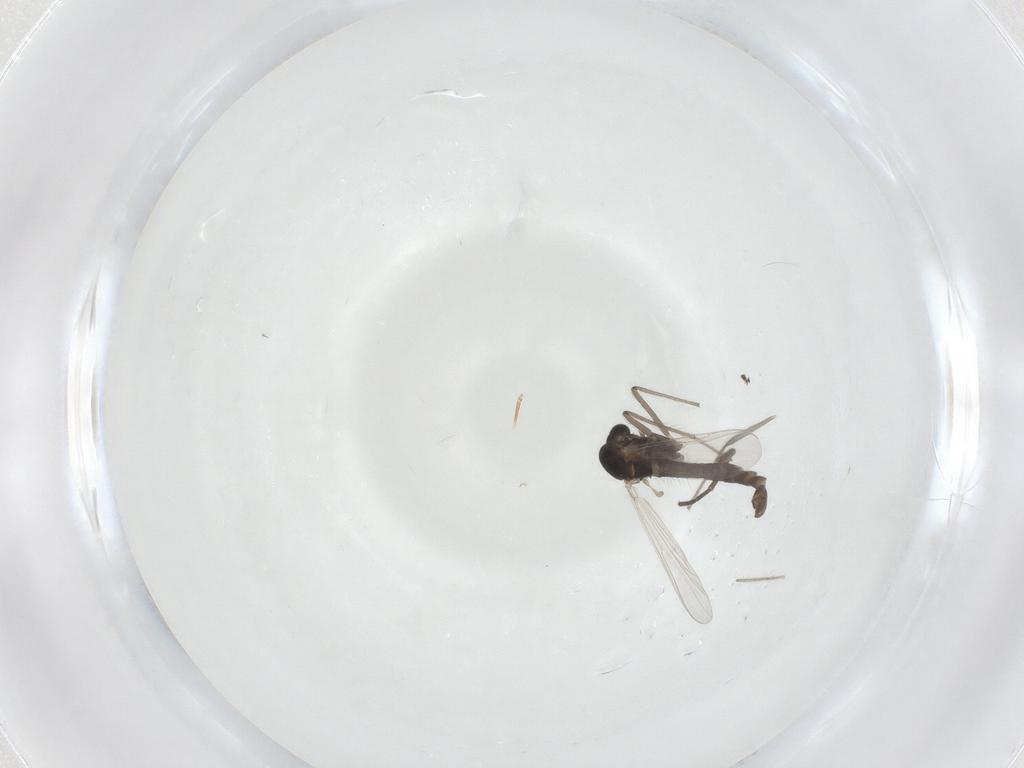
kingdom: Animalia
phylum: Arthropoda
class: Insecta
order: Diptera
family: Chironomidae
